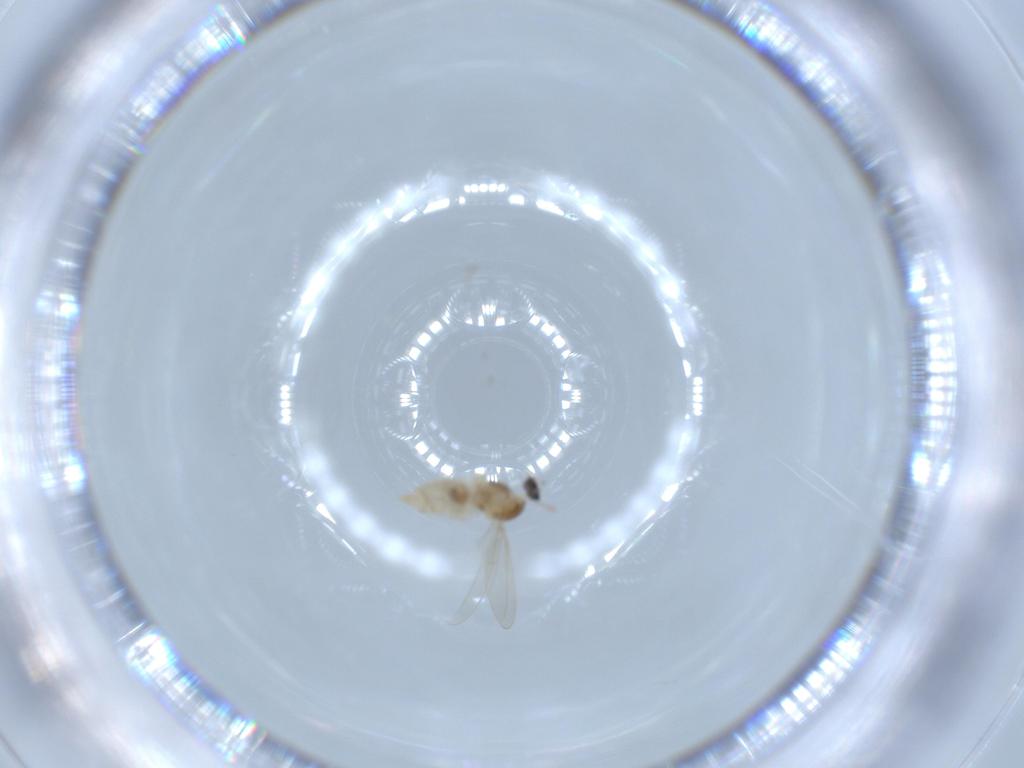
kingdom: Animalia
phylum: Arthropoda
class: Insecta
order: Diptera
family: Cecidomyiidae
